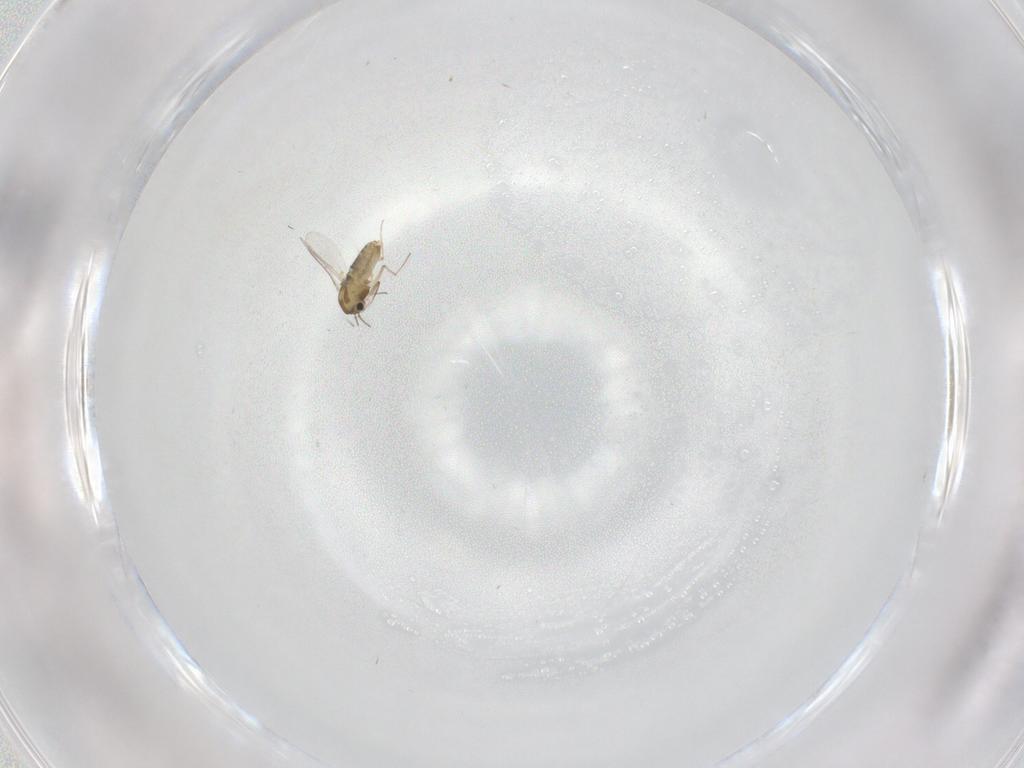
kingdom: Animalia
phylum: Arthropoda
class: Insecta
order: Diptera
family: Chironomidae
